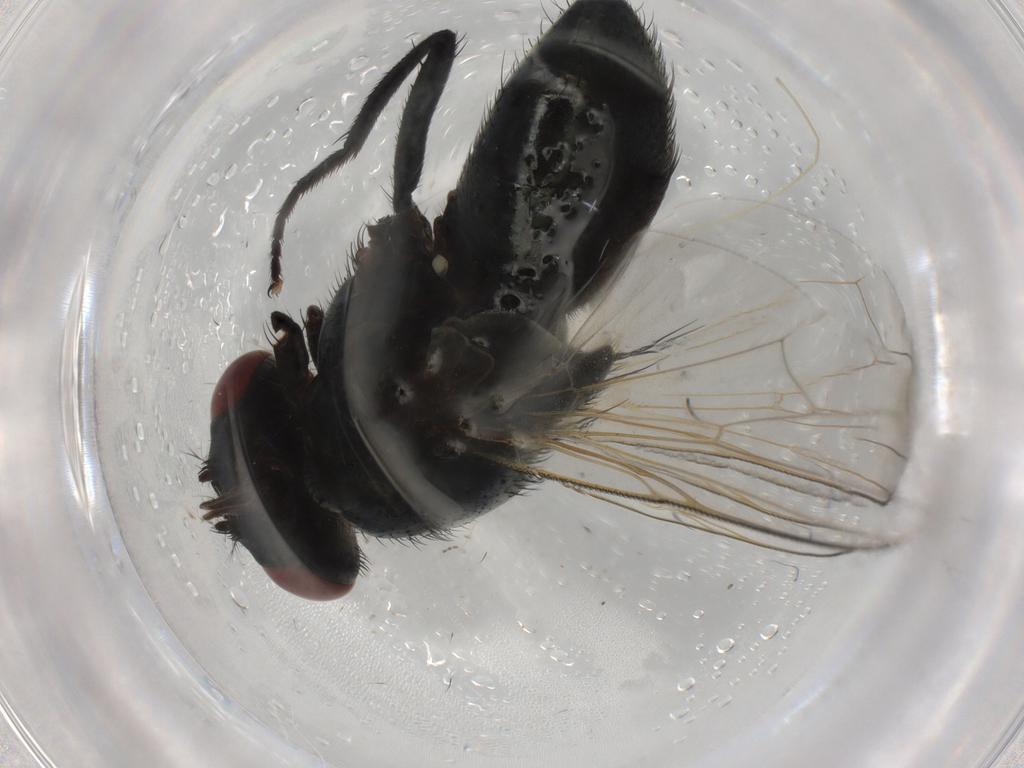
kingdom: Animalia
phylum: Arthropoda
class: Insecta
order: Diptera
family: Muscidae
